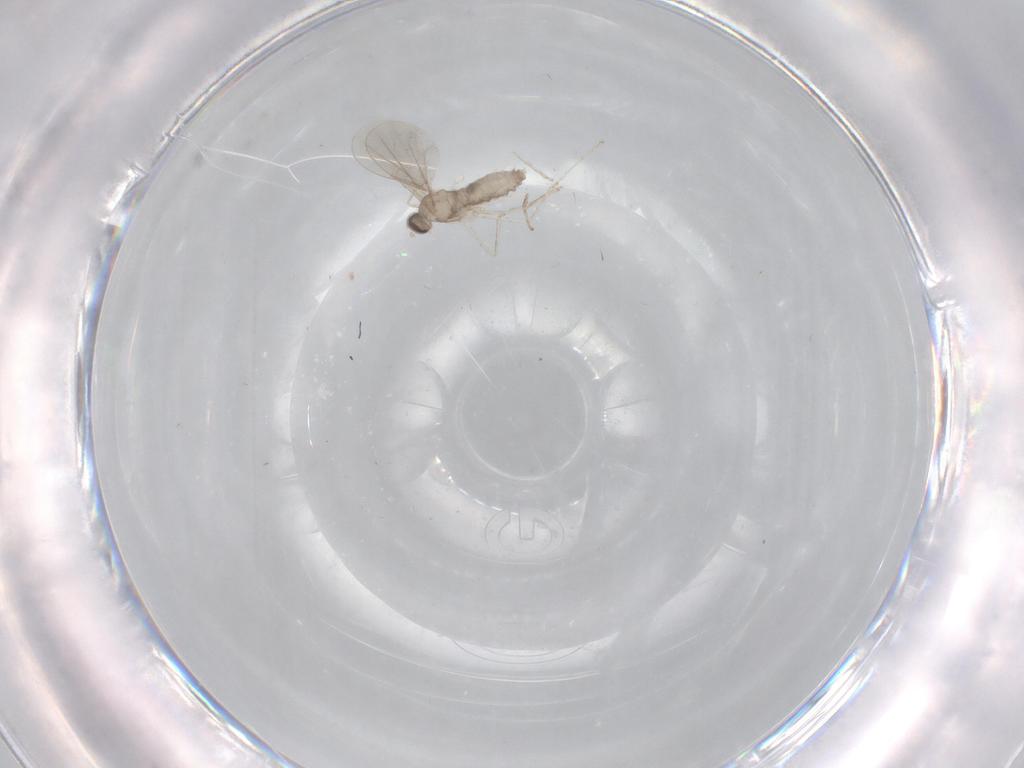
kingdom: Animalia
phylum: Arthropoda
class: Insecta
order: Diptera
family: Cecidomyiidae
